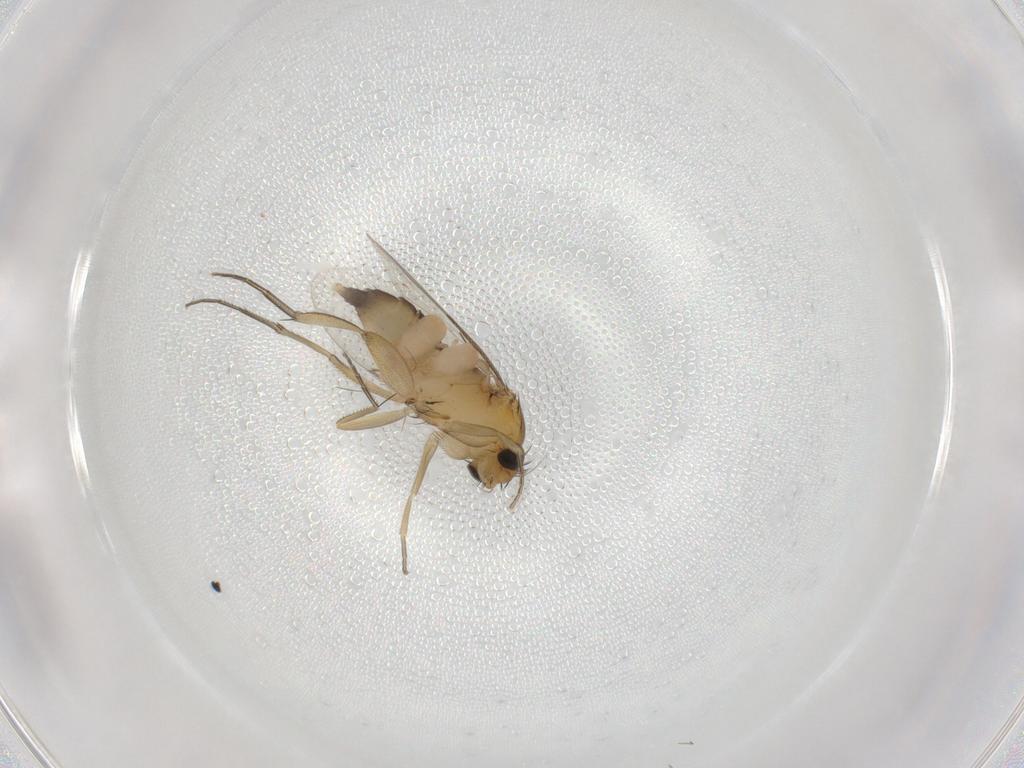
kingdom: Animalia
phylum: Arthropoda
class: Insecta
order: Diptera
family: Phoridae
